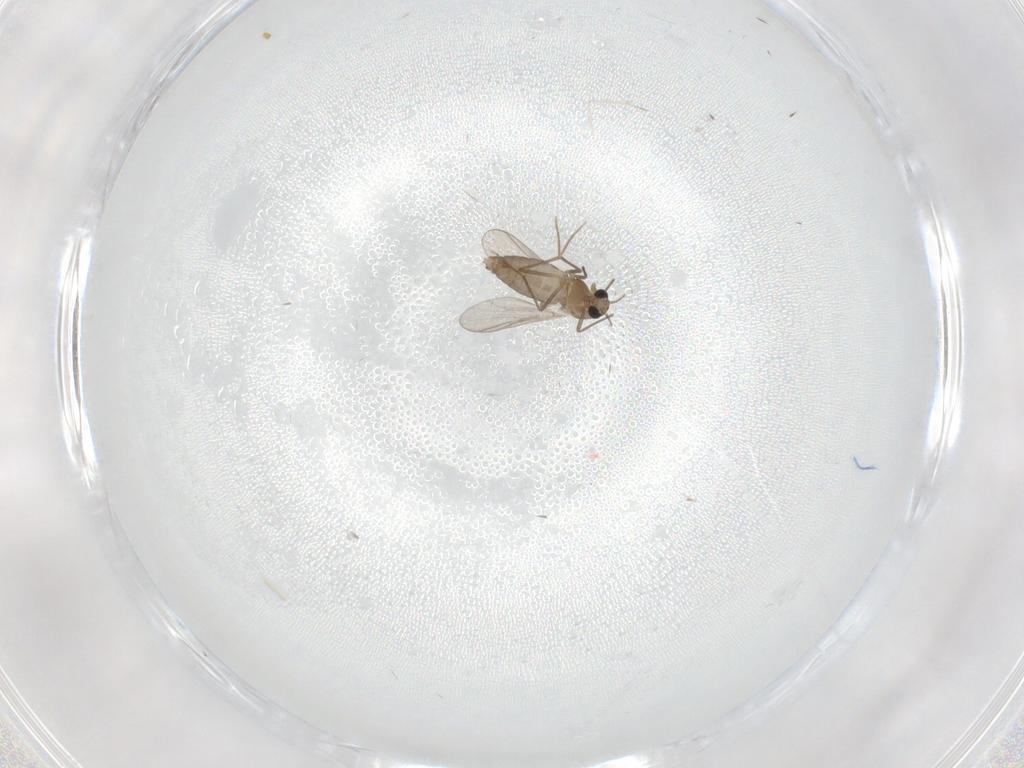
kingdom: Animalia
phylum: Arthropoda
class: Insecta
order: Diptera
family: Chironomidae
